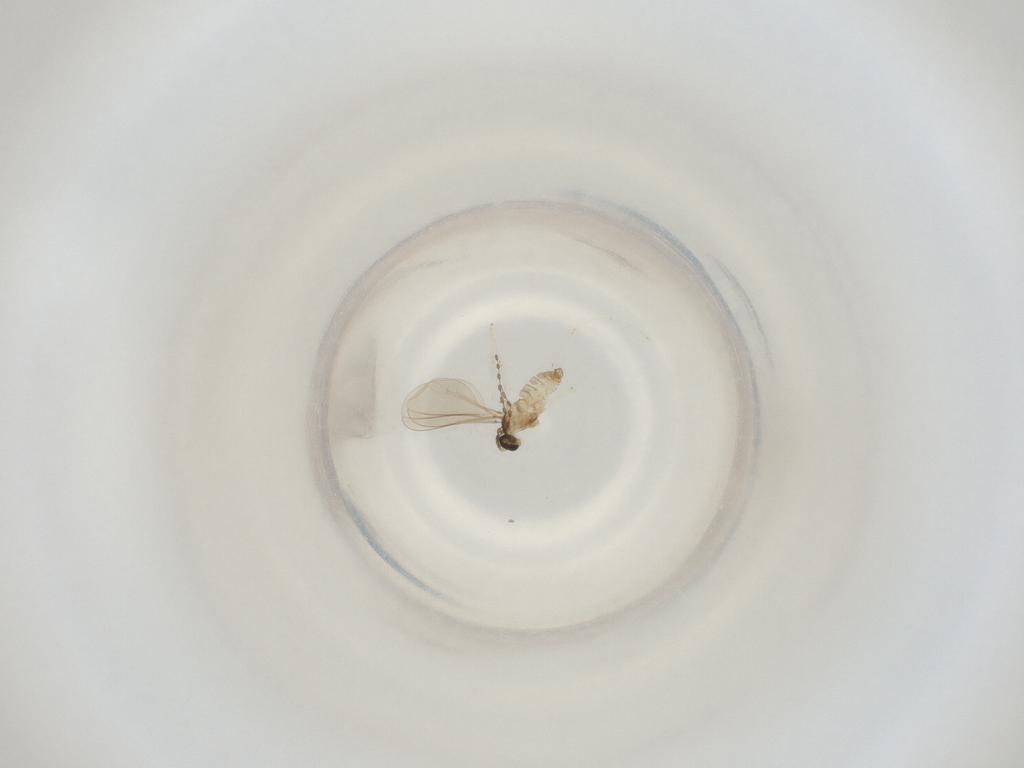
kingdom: Animalia
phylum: Arthropoda
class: Insecta
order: Diptera
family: Cecidomyiidae
